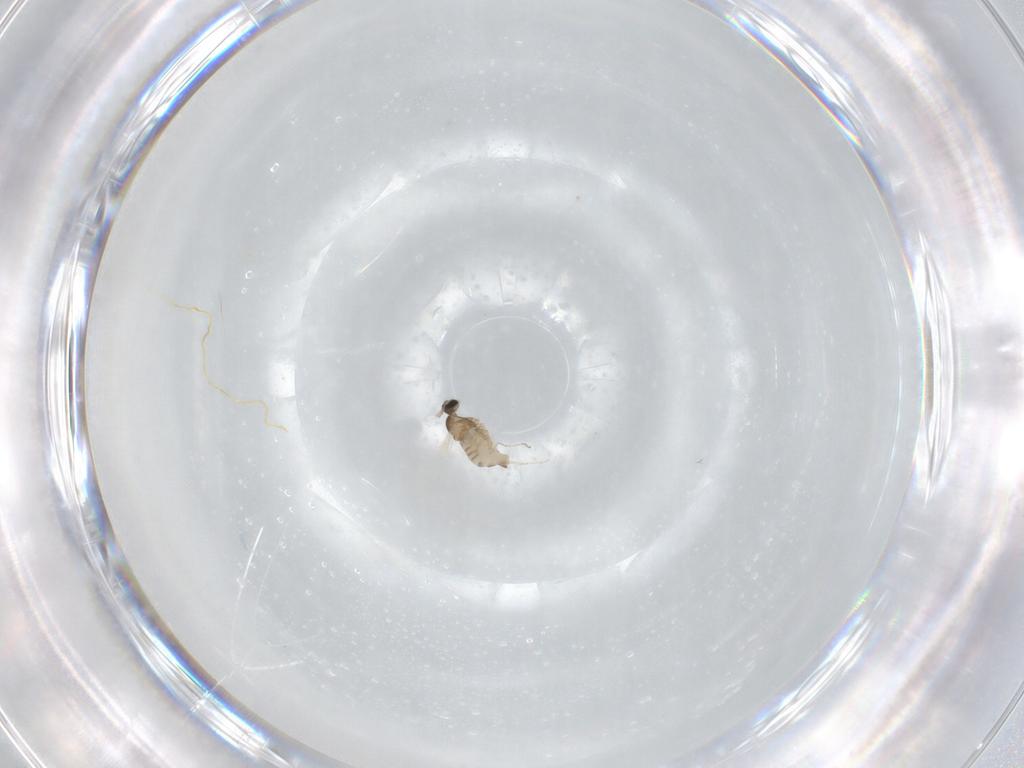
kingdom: Animalia
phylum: Arthropoda
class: Insecta
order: Diptera
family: Cecidomyiidae
